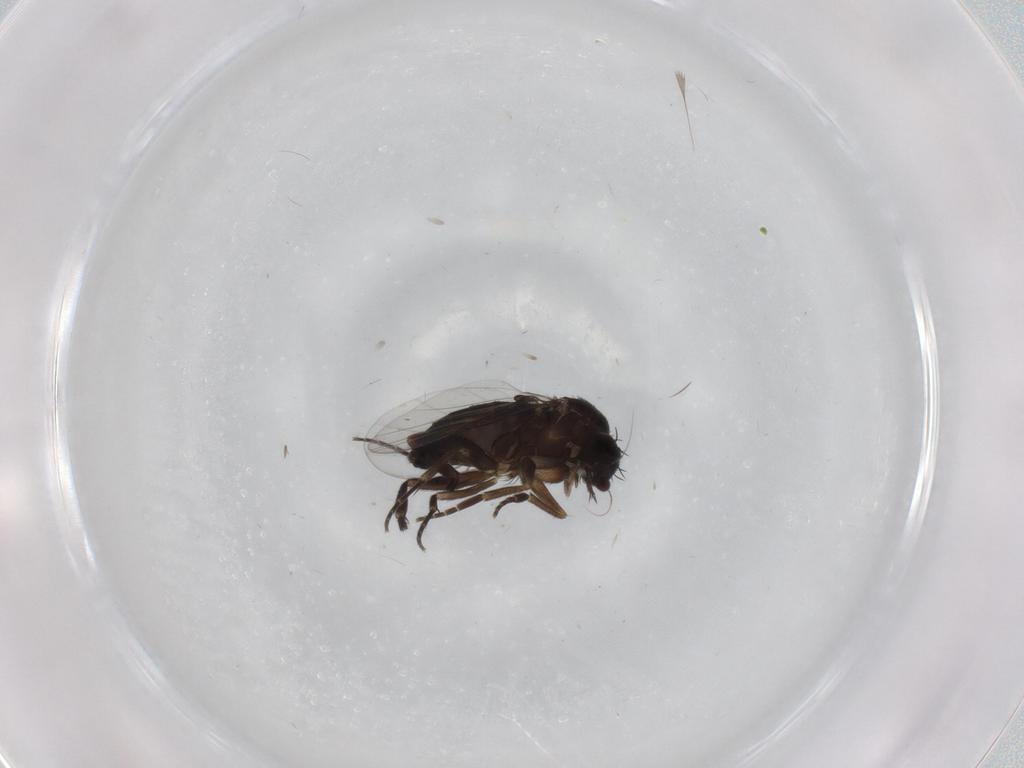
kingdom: Animalia
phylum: Arthropoda
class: Insecta
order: Diptera
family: Phoridae
